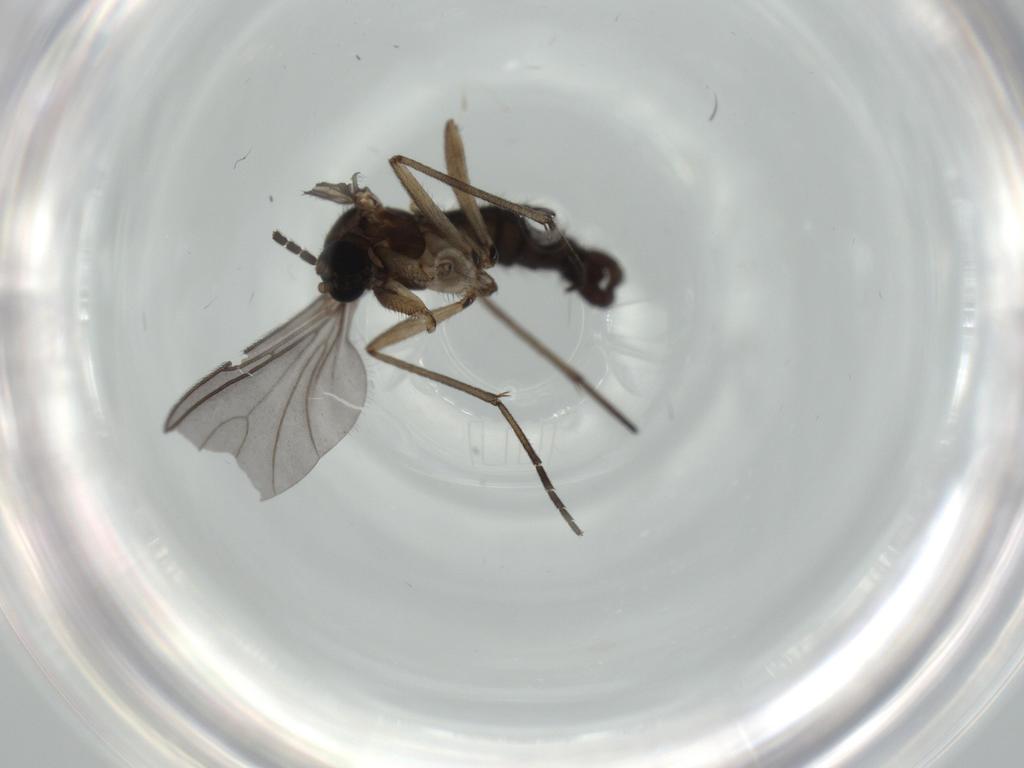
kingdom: Animalia
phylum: Arthropoda
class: Insecta
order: Diptera
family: Sciaridae
